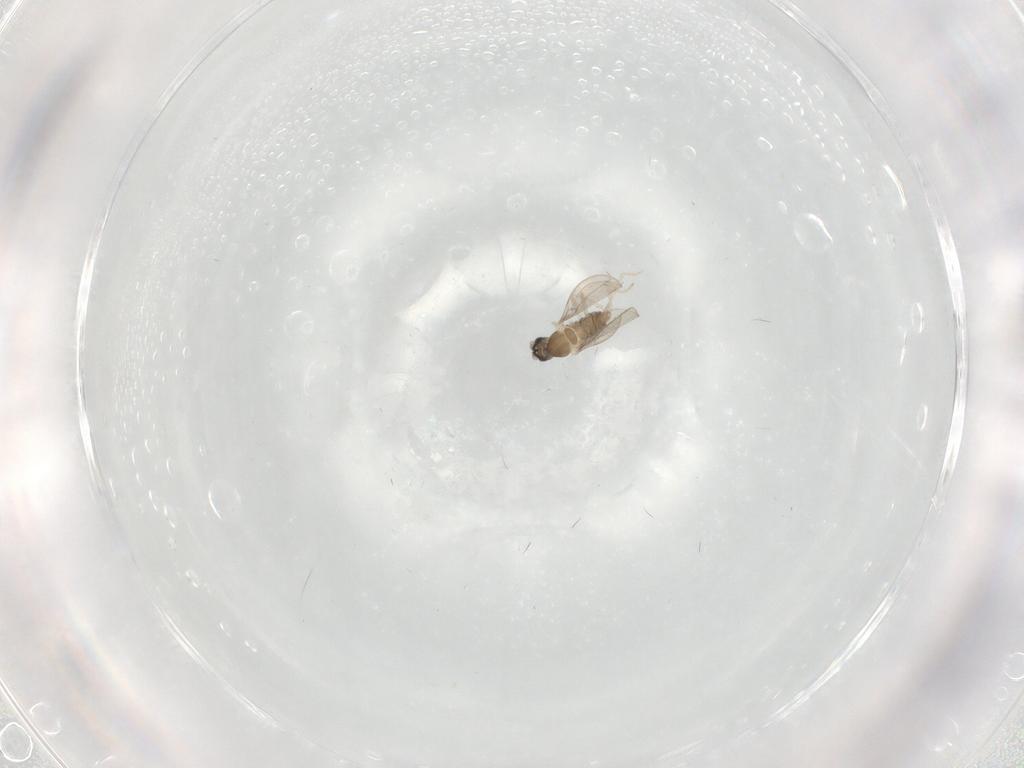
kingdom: Animalia
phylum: Arthropoda
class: Insecta
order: Diptera
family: Cecidomyiidae
